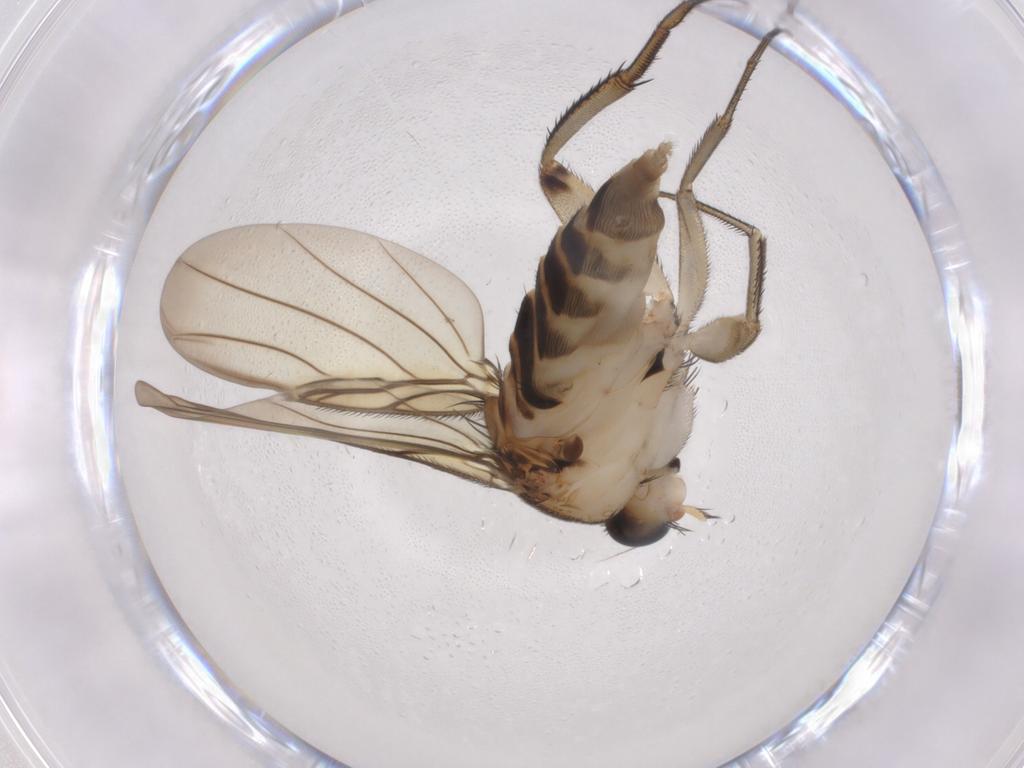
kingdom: Animalia
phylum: Arthropoda
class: Insecta
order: Diptera
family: Phoridae
